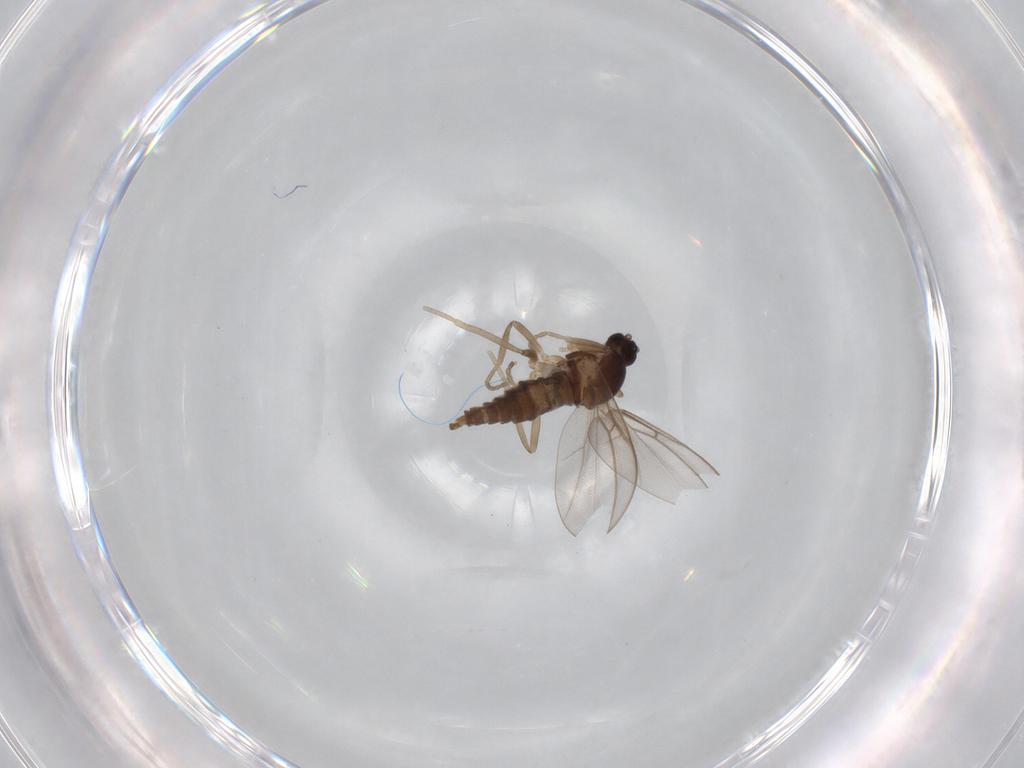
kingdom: Animalia
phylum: Arthropoda
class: Insecta
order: Diptera
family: Cecidomyiidae
